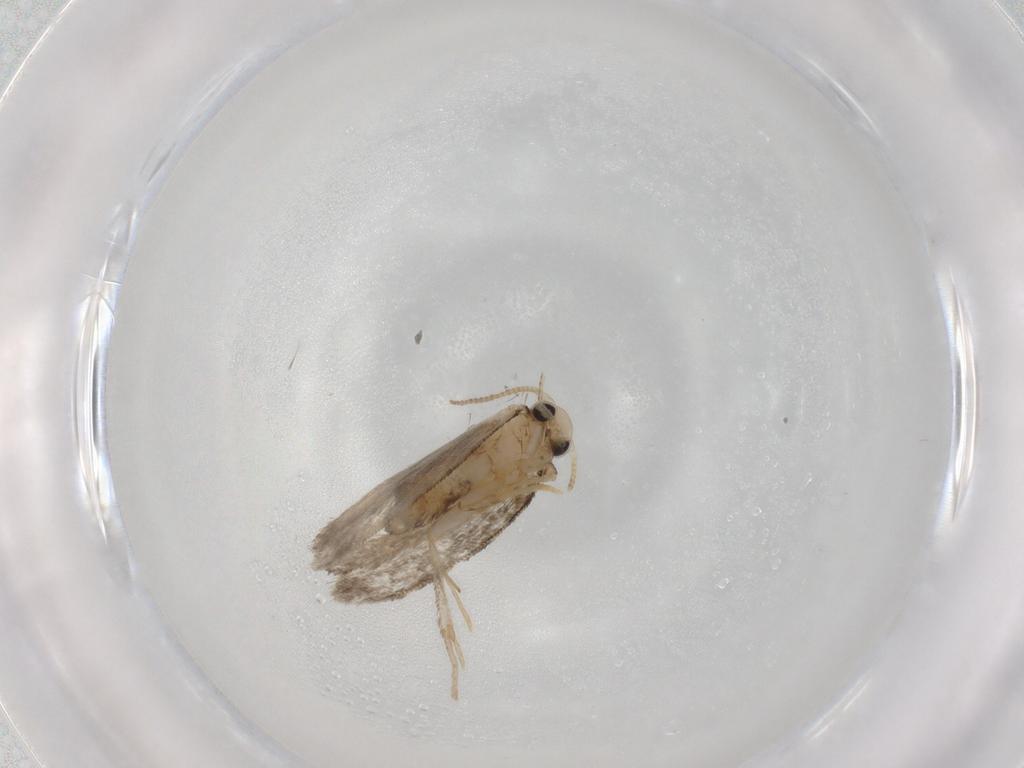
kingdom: Animalia
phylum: Arthropoda
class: Insecta
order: Lepidoptera
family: Psychidae
